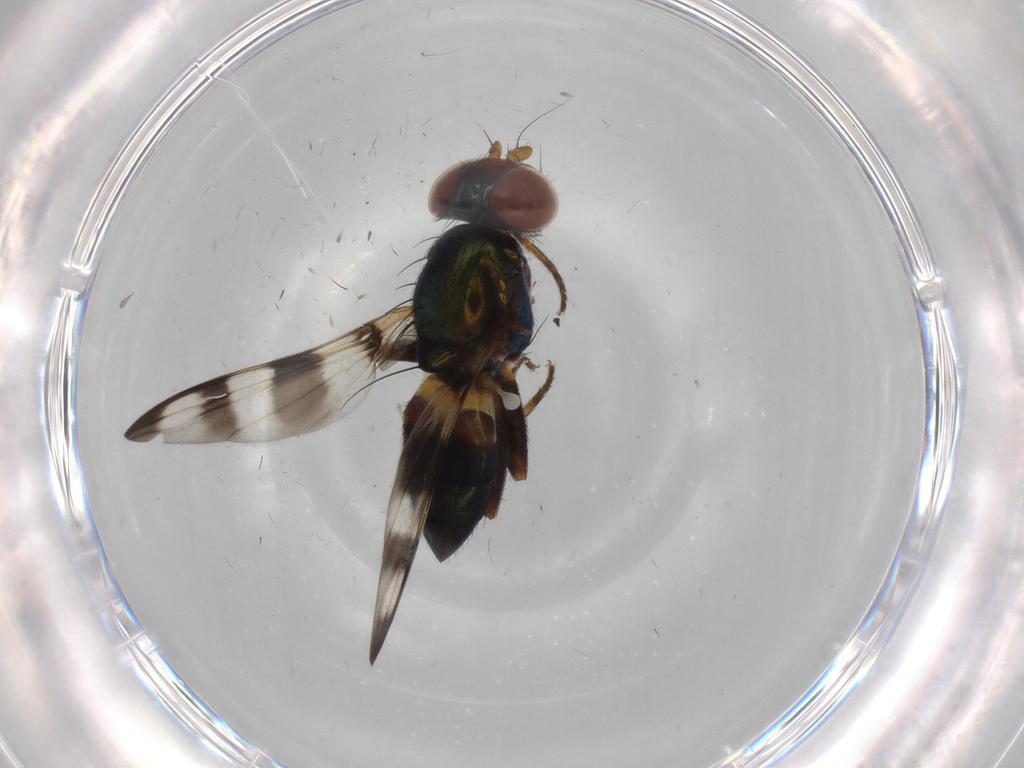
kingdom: Animalia
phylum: Arthropoda
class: Insecta
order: Diptera
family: Ulidiidae
